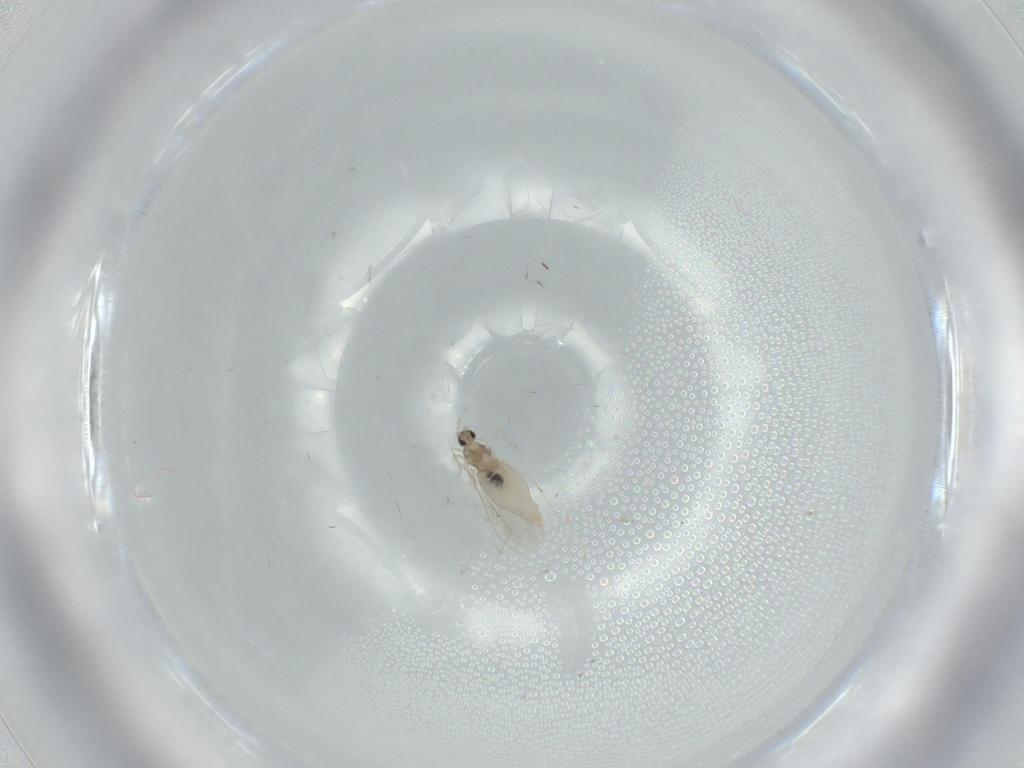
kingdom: Animalia
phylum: Arthropoda
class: Insecta
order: Diptera
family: Cecidomyiidae
